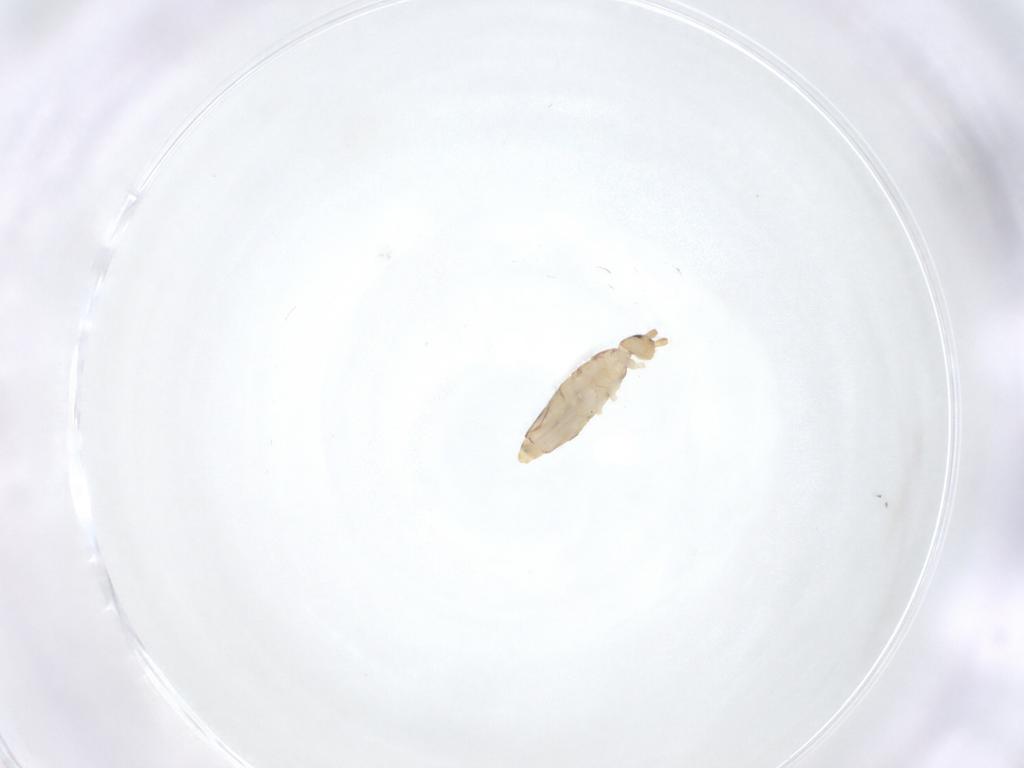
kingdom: Animalia
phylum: Arthropoda
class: Collembola
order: Entomobryomorpha
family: Entomobryidae
